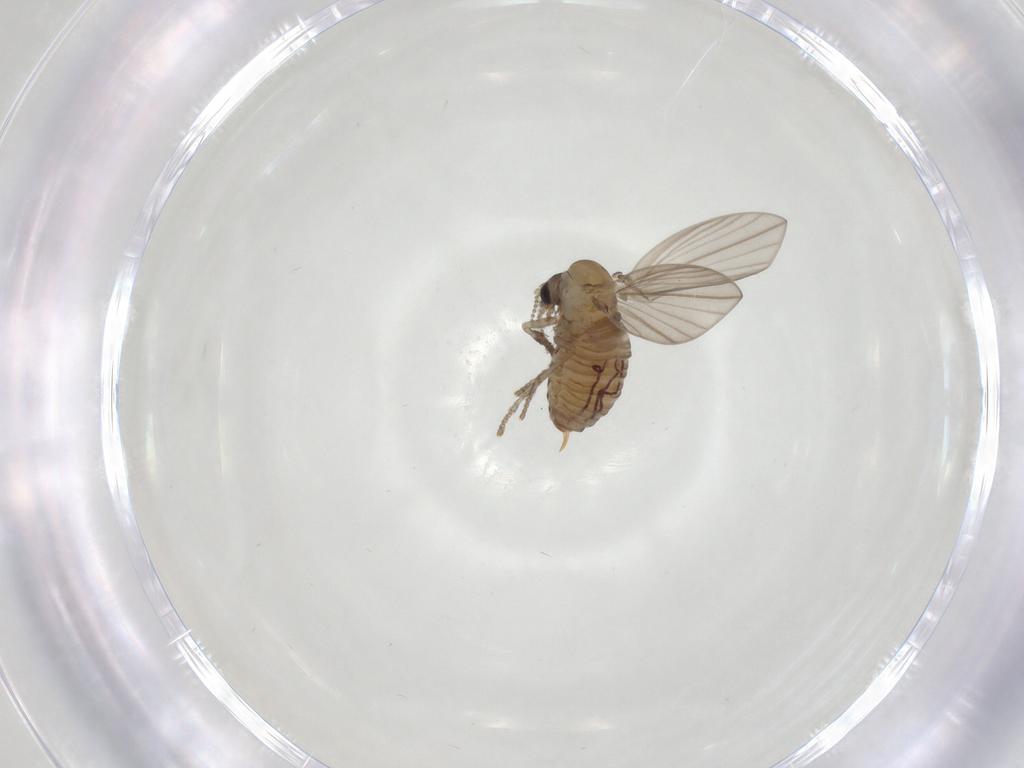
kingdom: Animalia
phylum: Arthropoda
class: Insecta
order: Diptera
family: Psychodidae
